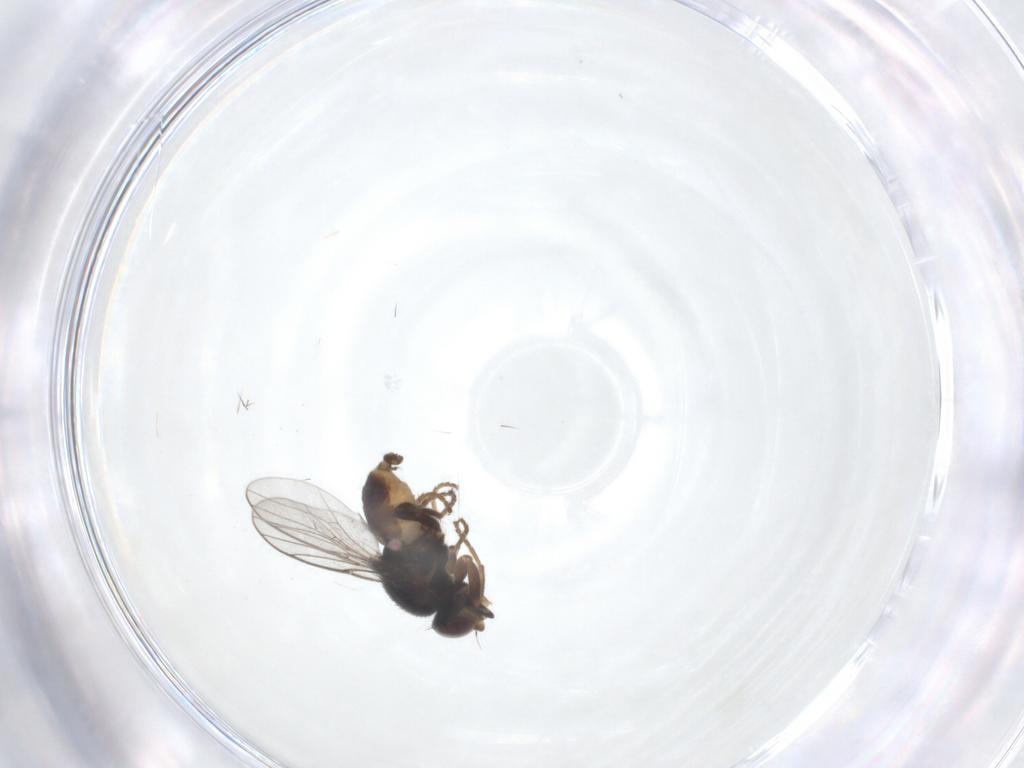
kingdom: Animalia
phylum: Arthropoda
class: Insecta
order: Diptera
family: Chloropidae
